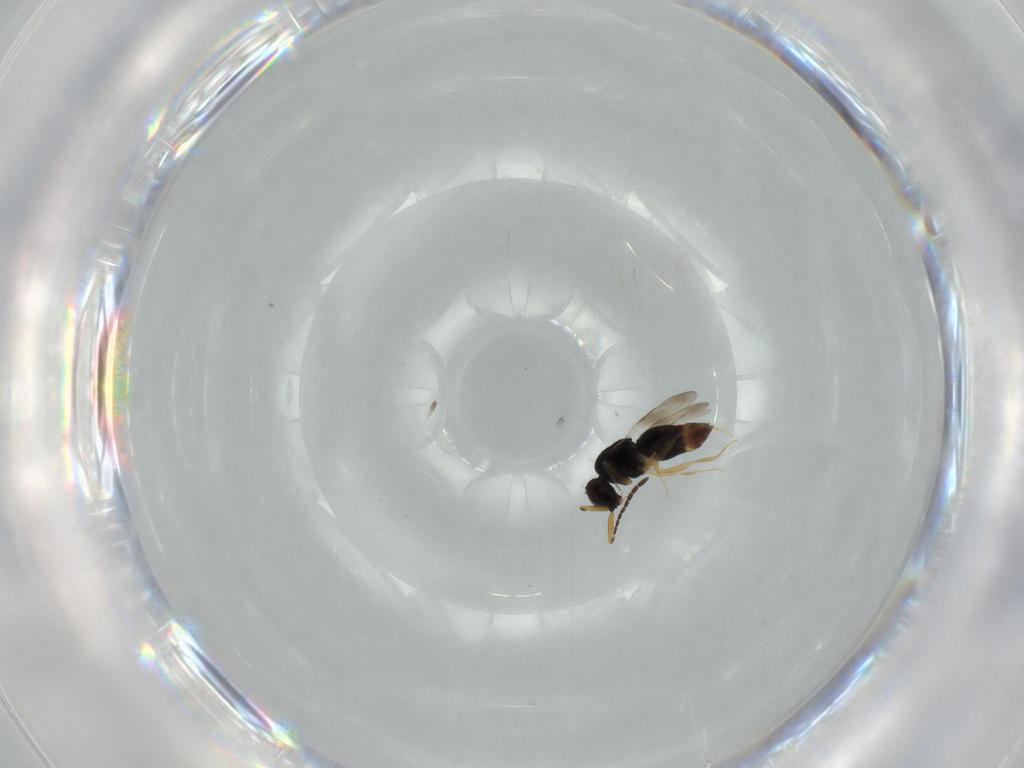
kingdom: Animalia
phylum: Arthropoda
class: Insecta
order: Hymenoptera
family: Ceraphronidae
